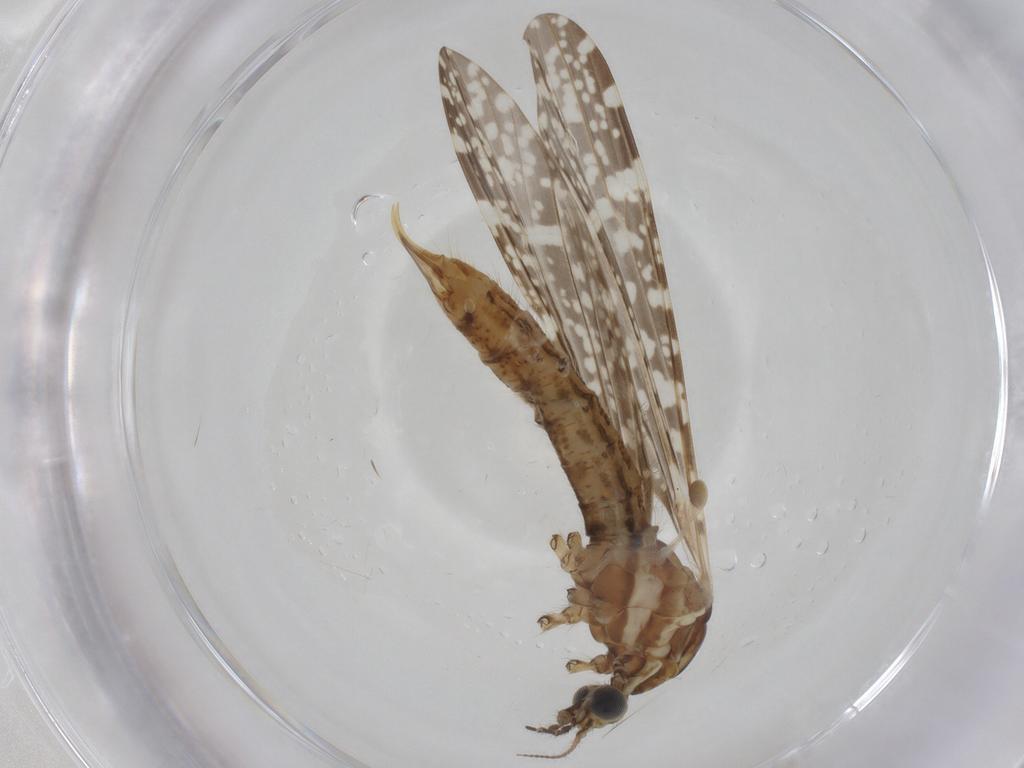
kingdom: Animalia
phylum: Arthropoda
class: Insecta
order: Diptera
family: Limoniidae
